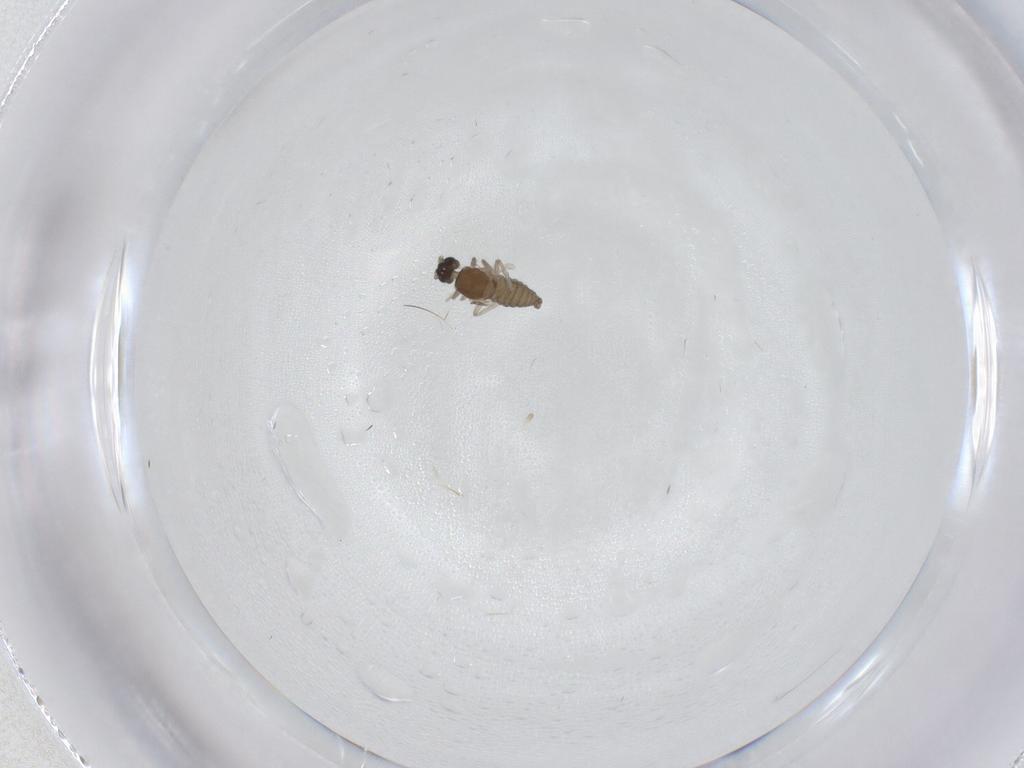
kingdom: Animalia
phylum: Arthropoda
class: Insecta
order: Diptera
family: Cecidomyiidae
